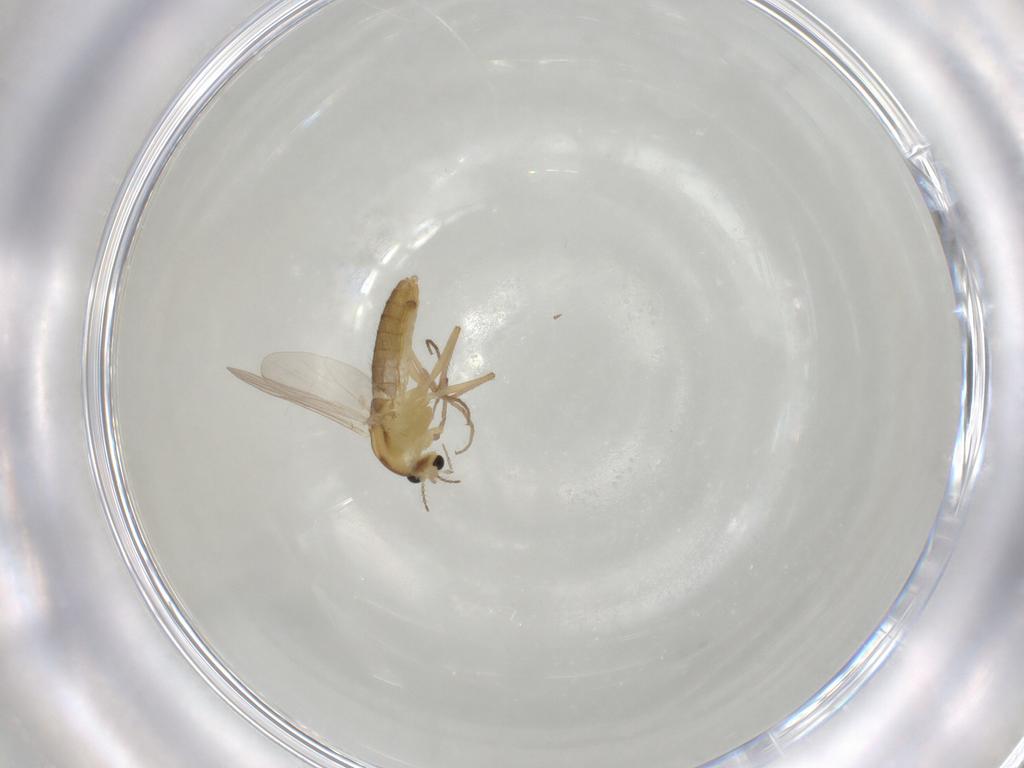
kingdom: Animalia
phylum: Arthropoda
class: Insecta
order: Diptera
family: Chironomidae
